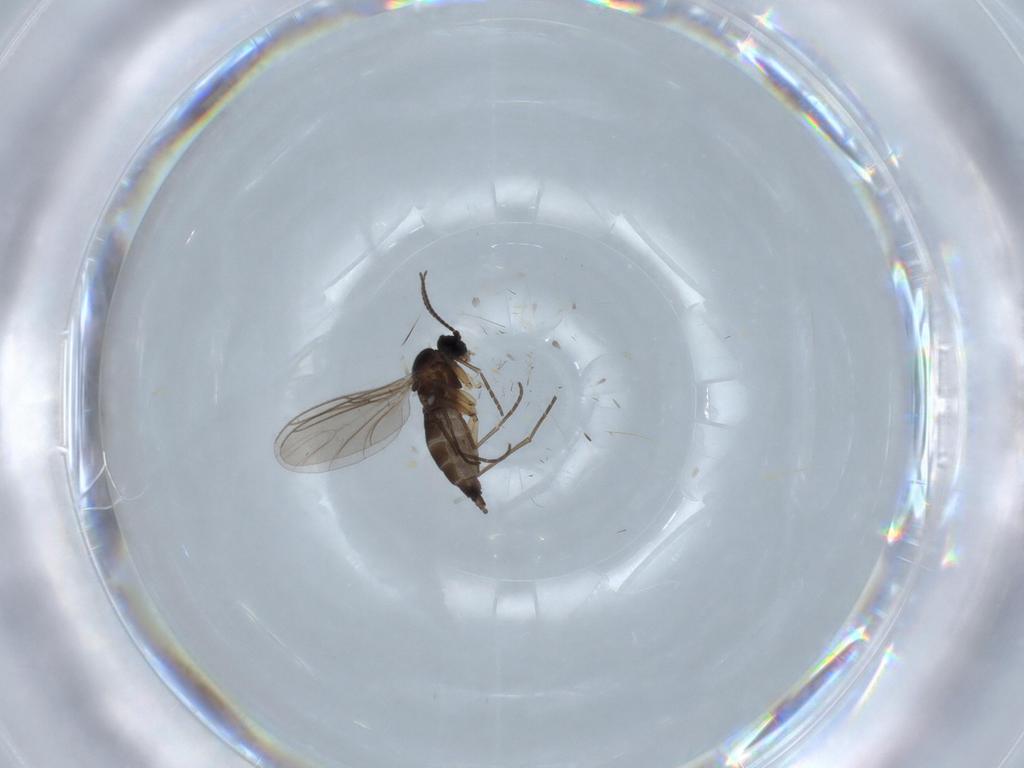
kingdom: Animalia
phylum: Arthropoda
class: Insecta
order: Diptera
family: Sciaridae
